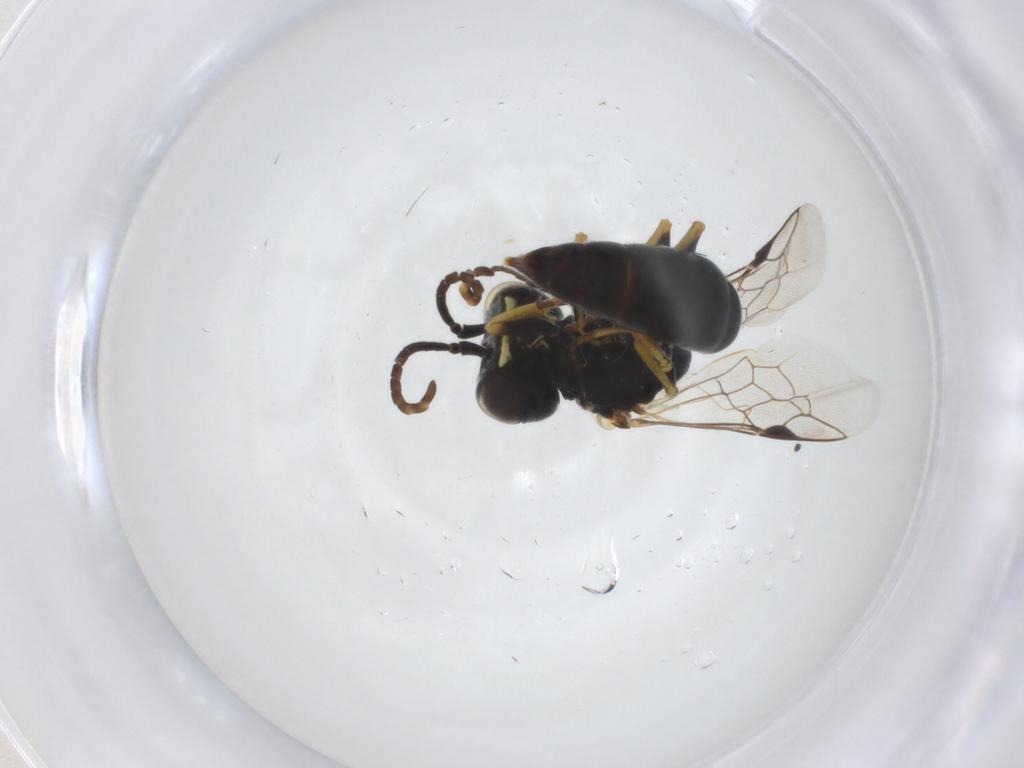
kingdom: Animalia
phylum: Arthropoda
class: Insecta
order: Hymenoptera
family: Pemphredonidae
